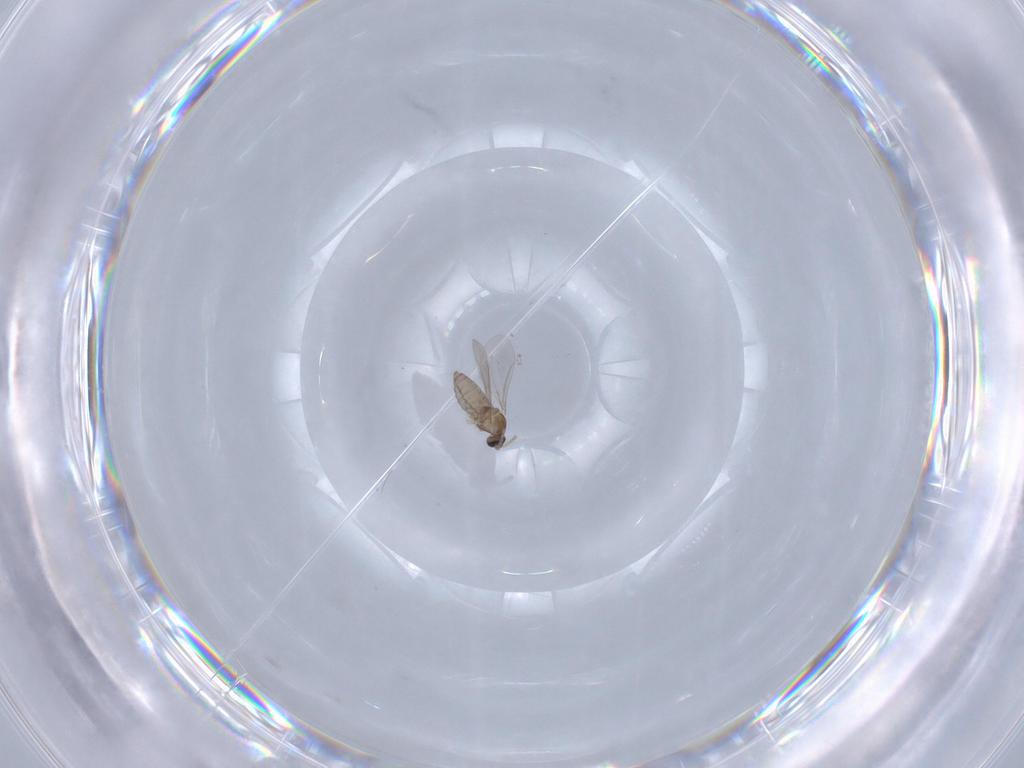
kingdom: Animalia
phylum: Arthropoda
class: Insecta
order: Diptera
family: Cecidomyiidae
